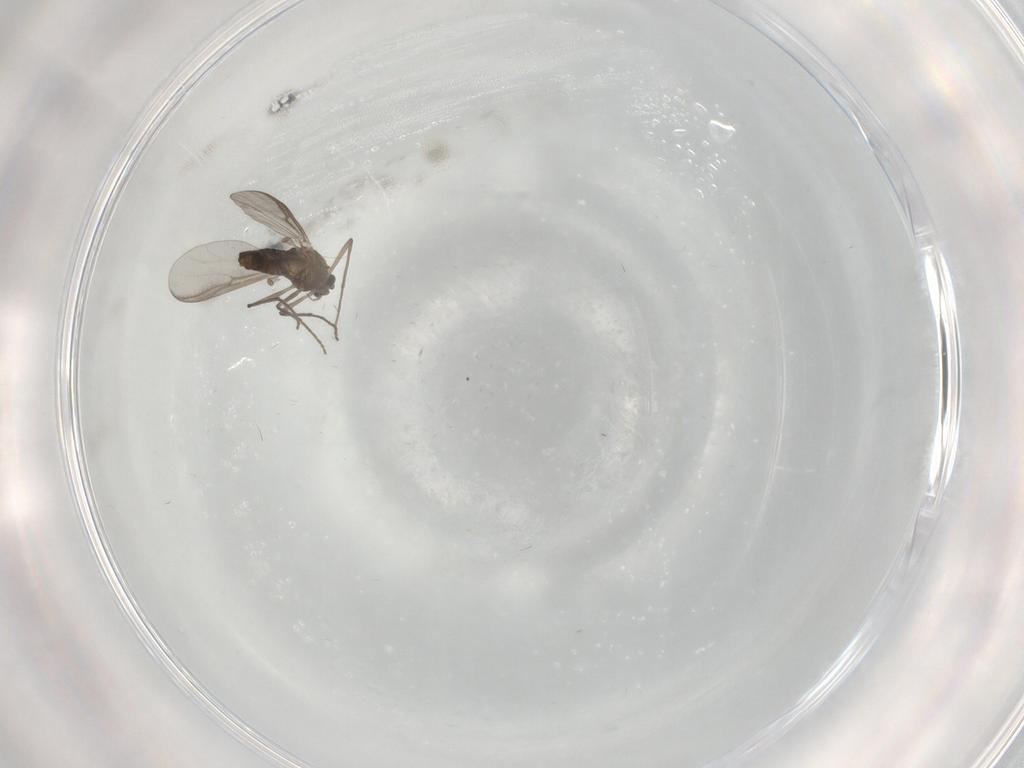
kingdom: Animalia
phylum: Arthropoda
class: Insecta
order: Diptera
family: Chironomidae
